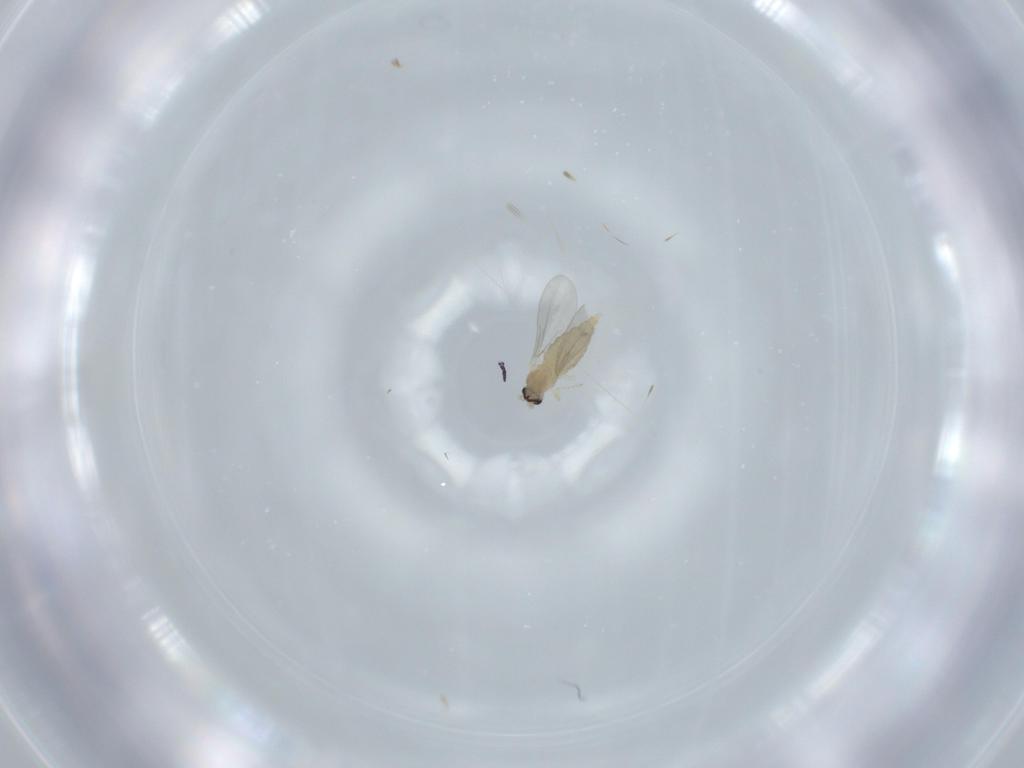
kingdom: Animalia
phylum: Arthropoda
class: Insecta
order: Diptera
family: Cecidomyiidae
